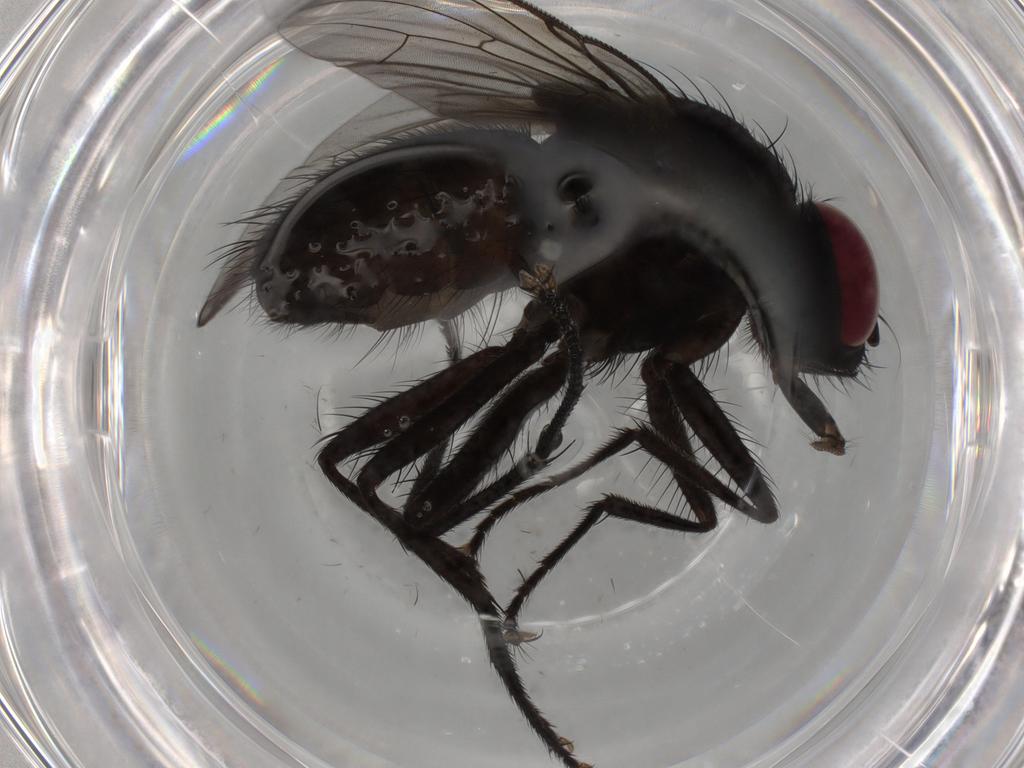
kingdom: Animalia
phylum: Arthropoda
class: Insecta
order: Diptera
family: Muscidae
